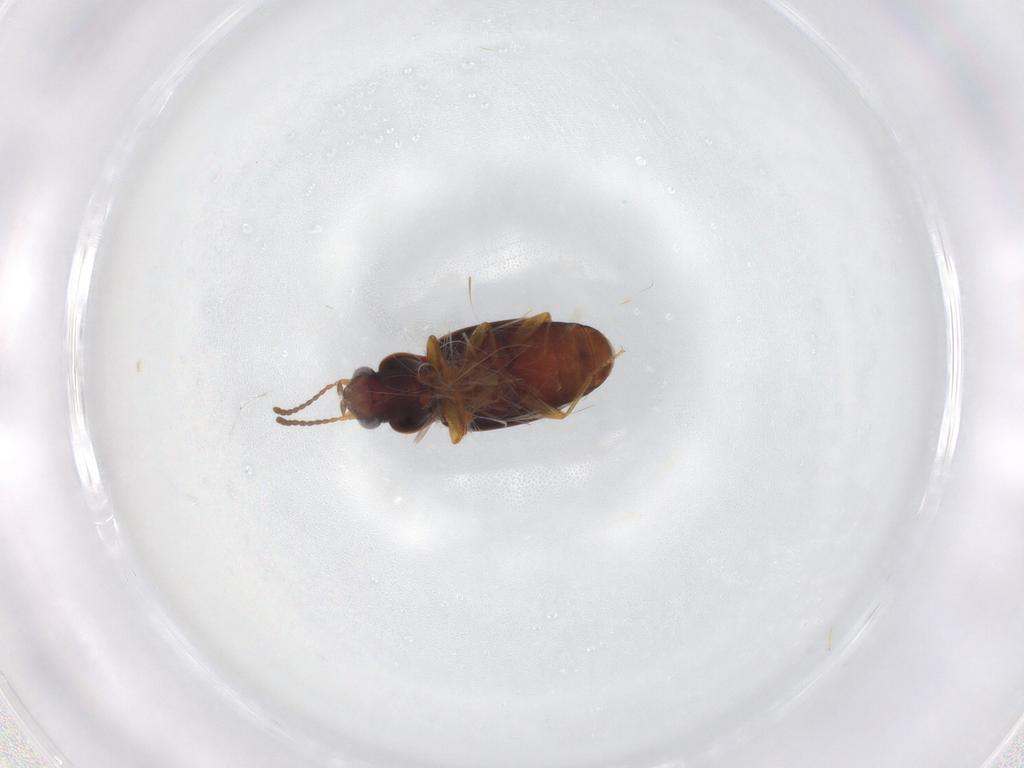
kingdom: Animalia
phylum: Arthropoda
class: Insecta
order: Coleoptera
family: Carabidae
